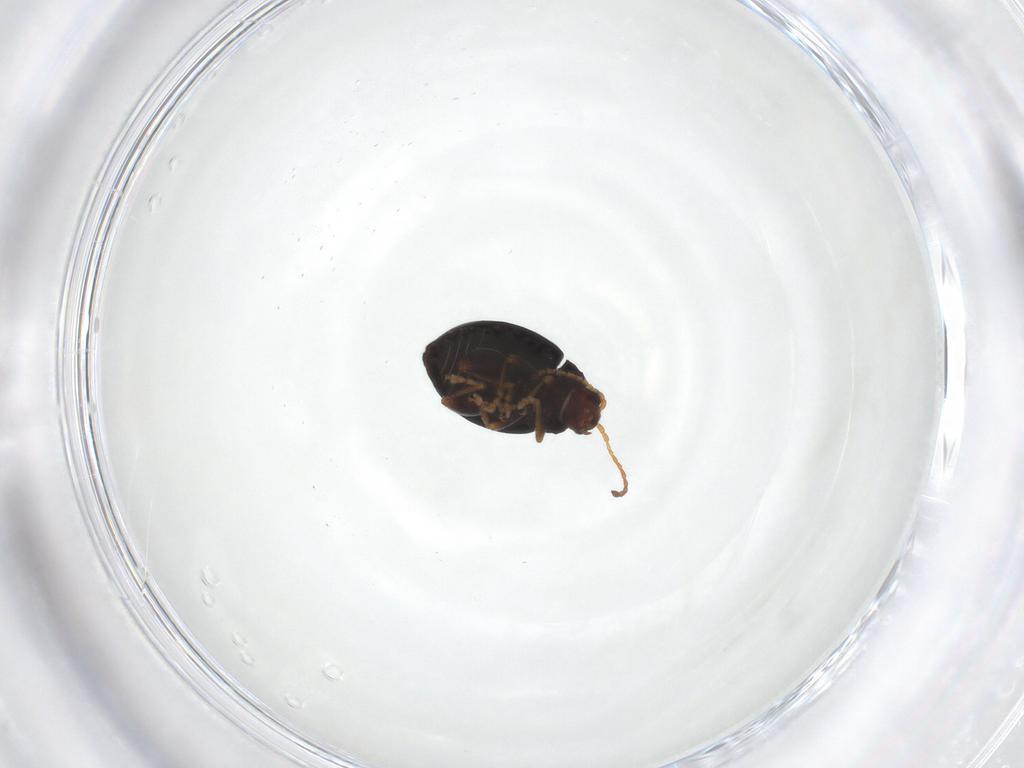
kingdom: Animalia
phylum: Arthropoda
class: Insecta
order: Coleoptera
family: Chrysomelidae
